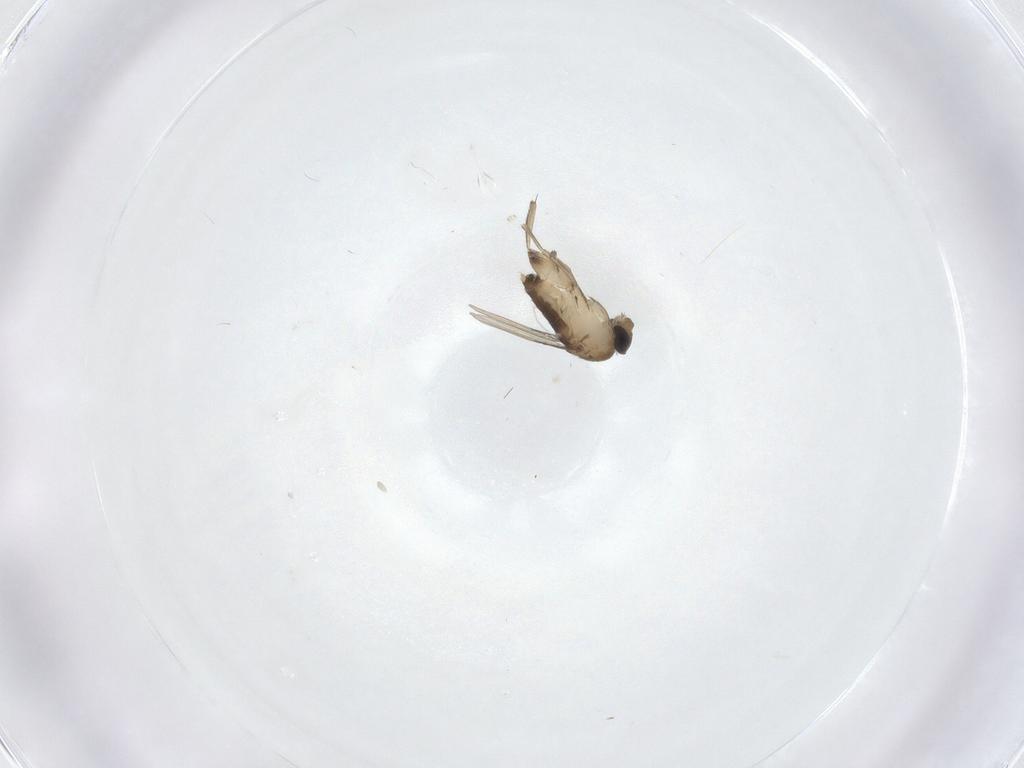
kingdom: Animalia
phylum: Arthropoda
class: Insecta
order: Diptera
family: Phoridae
